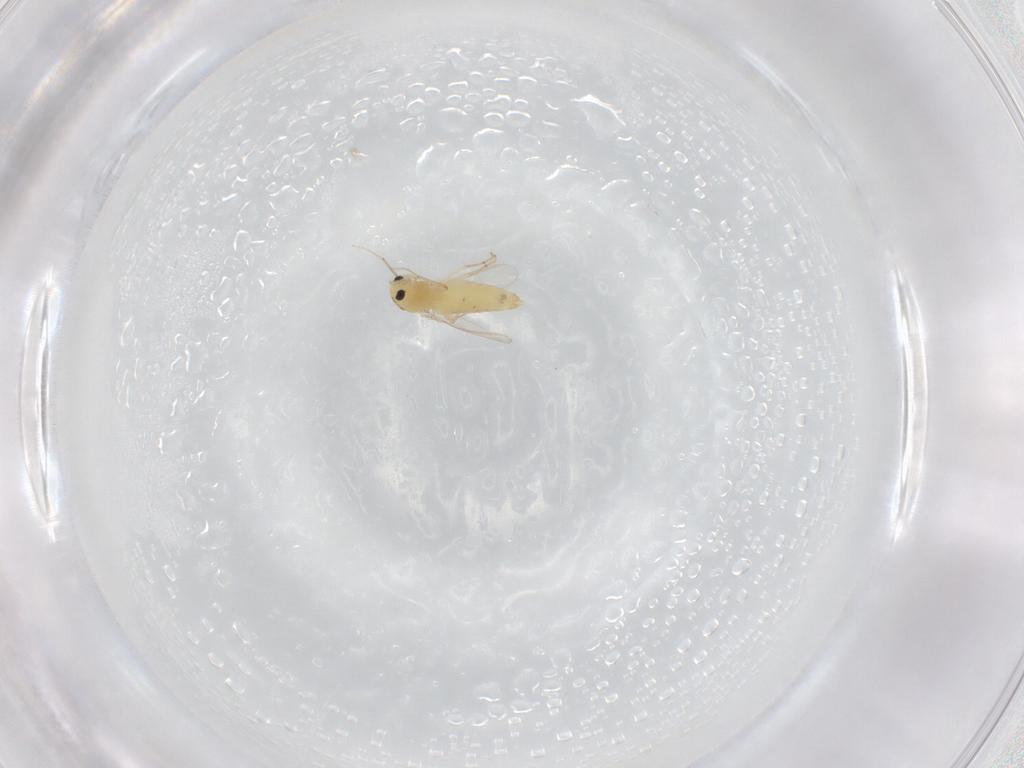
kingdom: Animalia
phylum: Arthropoda
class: Insecta
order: Diptera
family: Chironomidae
